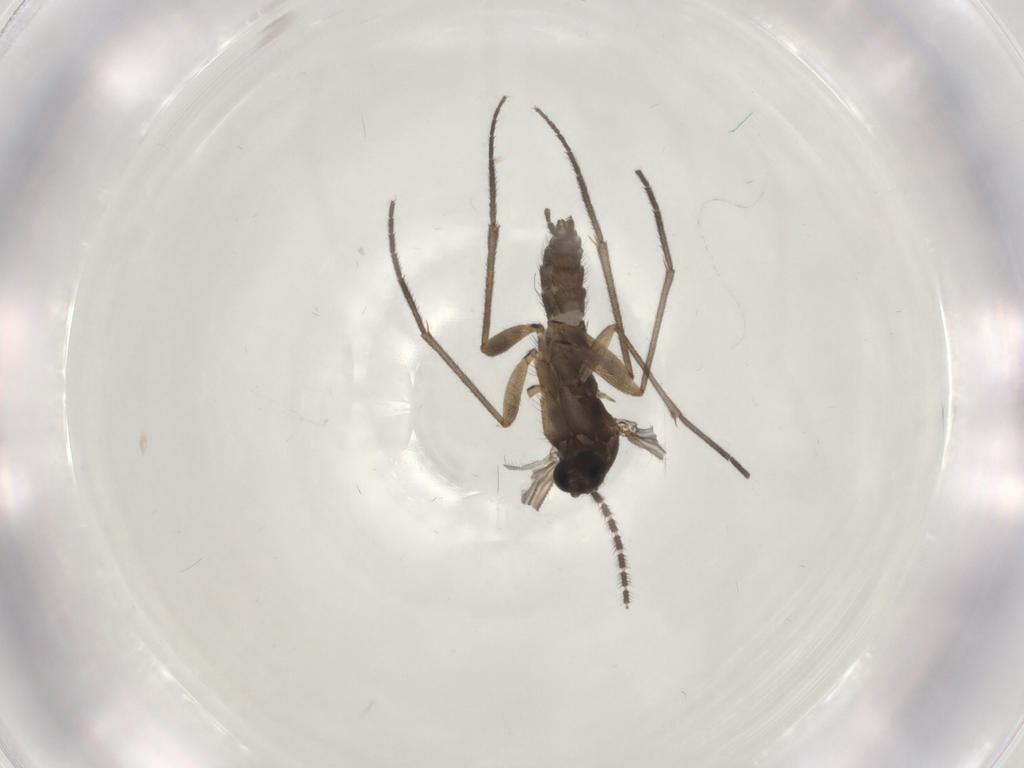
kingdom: Animalia
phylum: Arthropoda
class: Insecta
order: Diptera
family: Sciaridae
